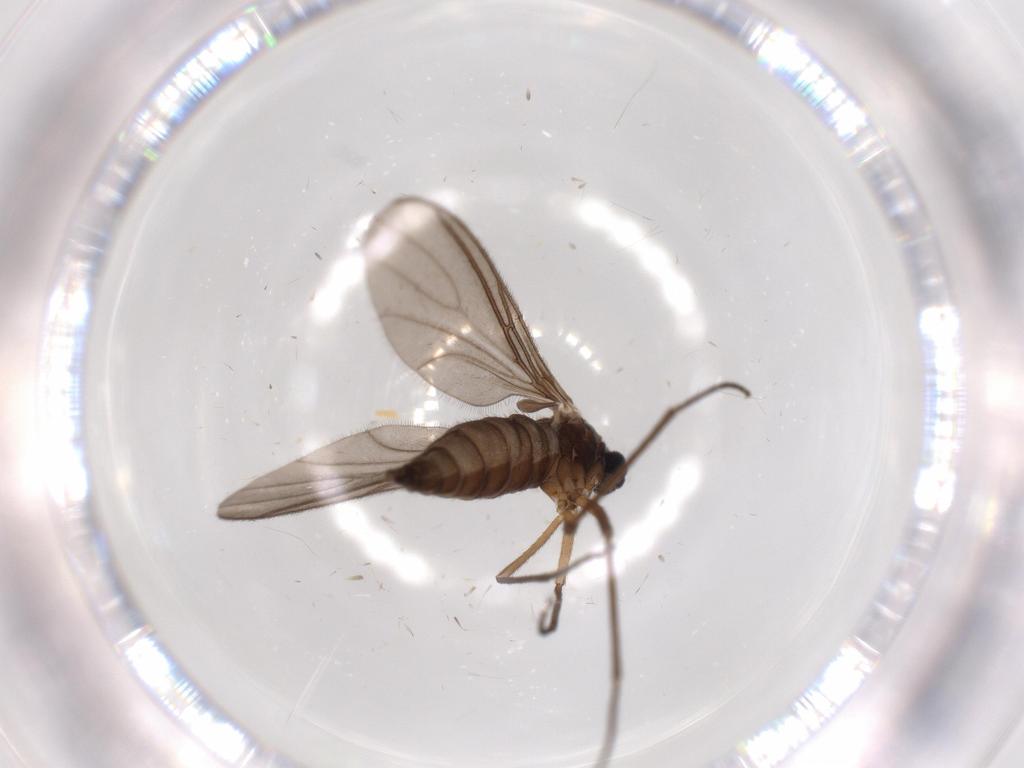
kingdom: Animalia
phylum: Arthropoda
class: Insecta
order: Diptera
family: Sciaridae
